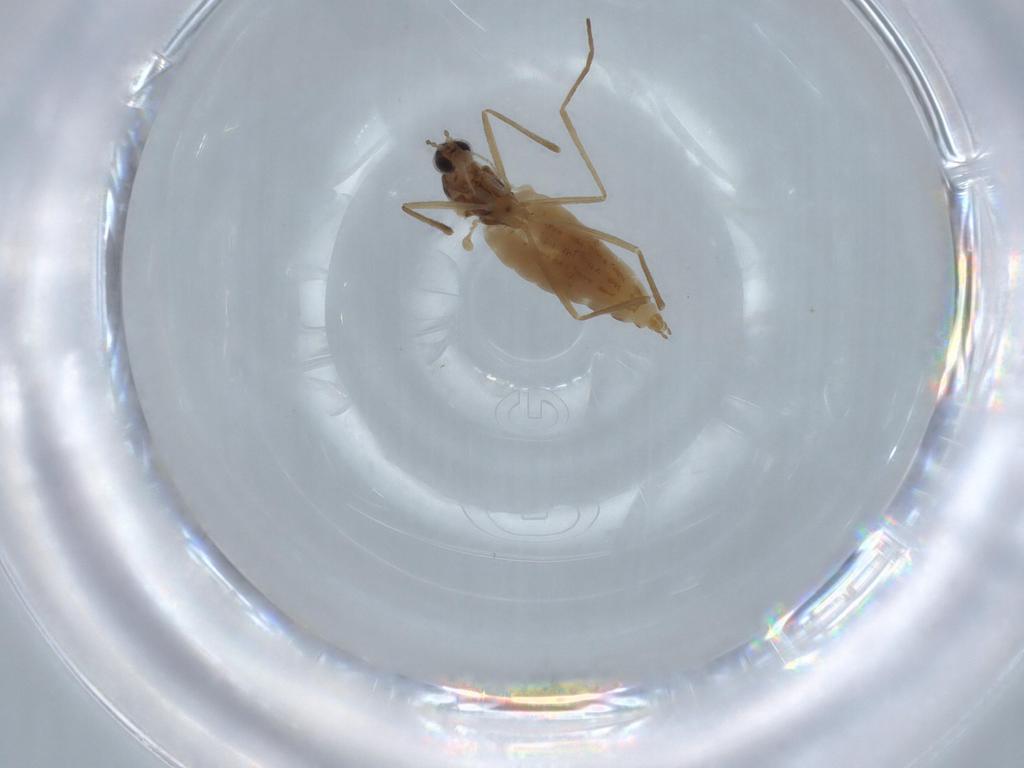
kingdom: Animalia
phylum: Arthropoda
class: Insecta
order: Diptera
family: Cecidomyiidae
